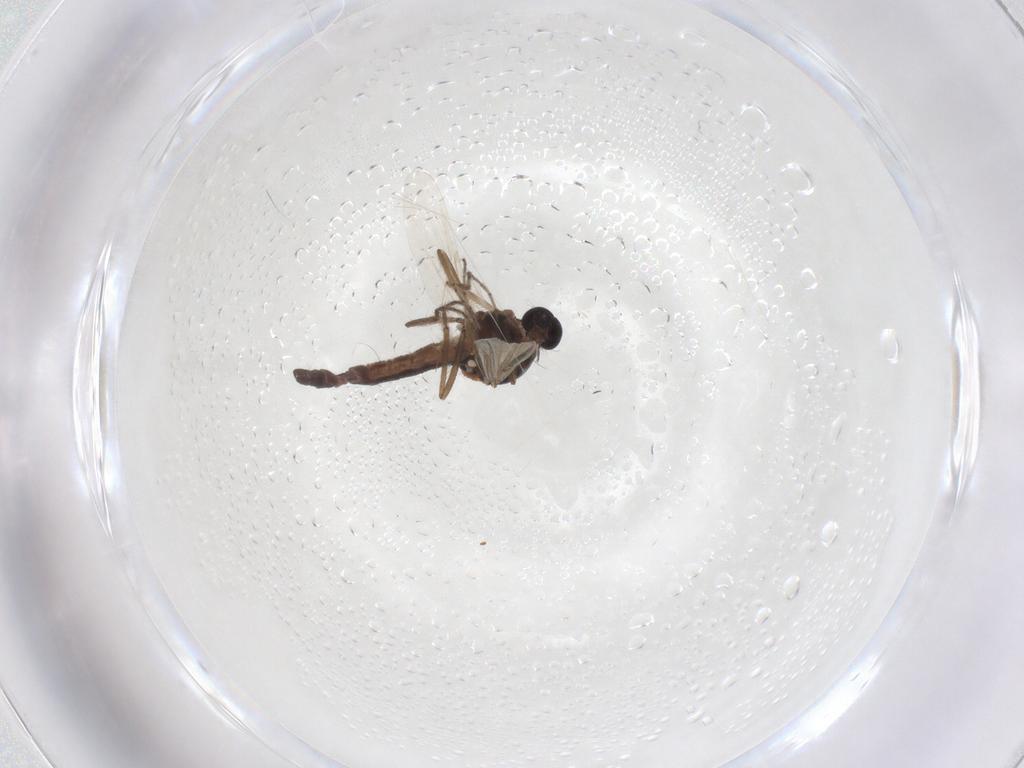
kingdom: Animalia
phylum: Arthropoda
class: Insecta
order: Diptera
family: Ceratopogonidae
